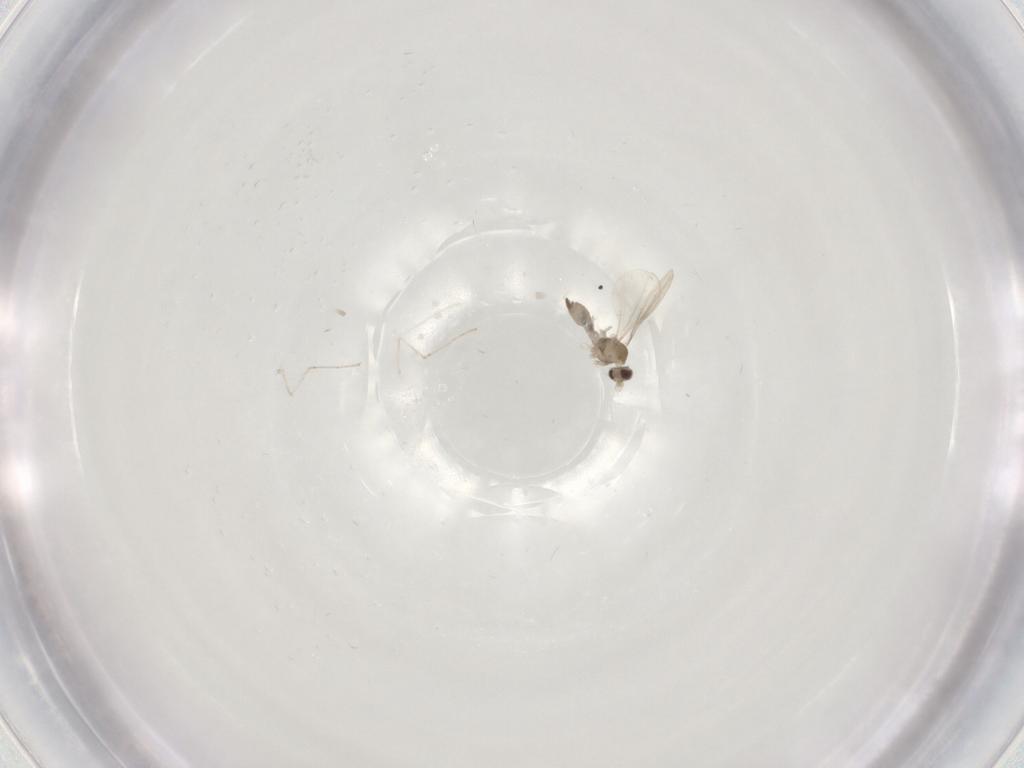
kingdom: Animalia
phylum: Arthropoda
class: Insecta
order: Diptera
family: Cecidomyiidae
